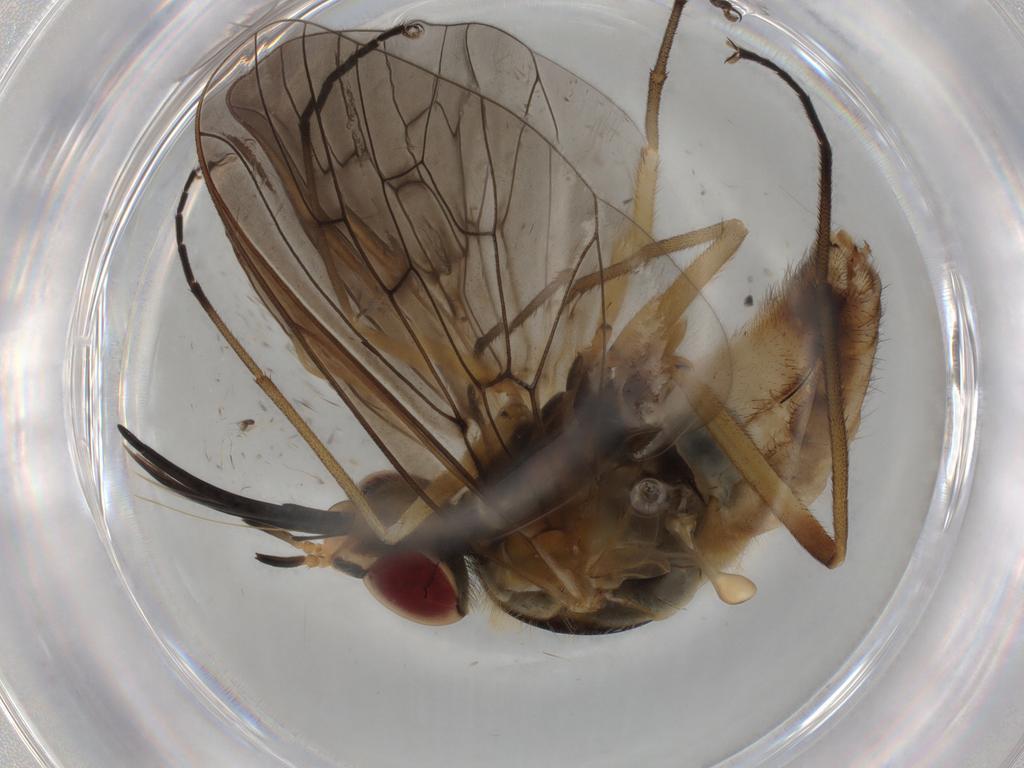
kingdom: Animalia
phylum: Arthropoda
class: Insecta
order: Diptera
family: Bombyliidae
